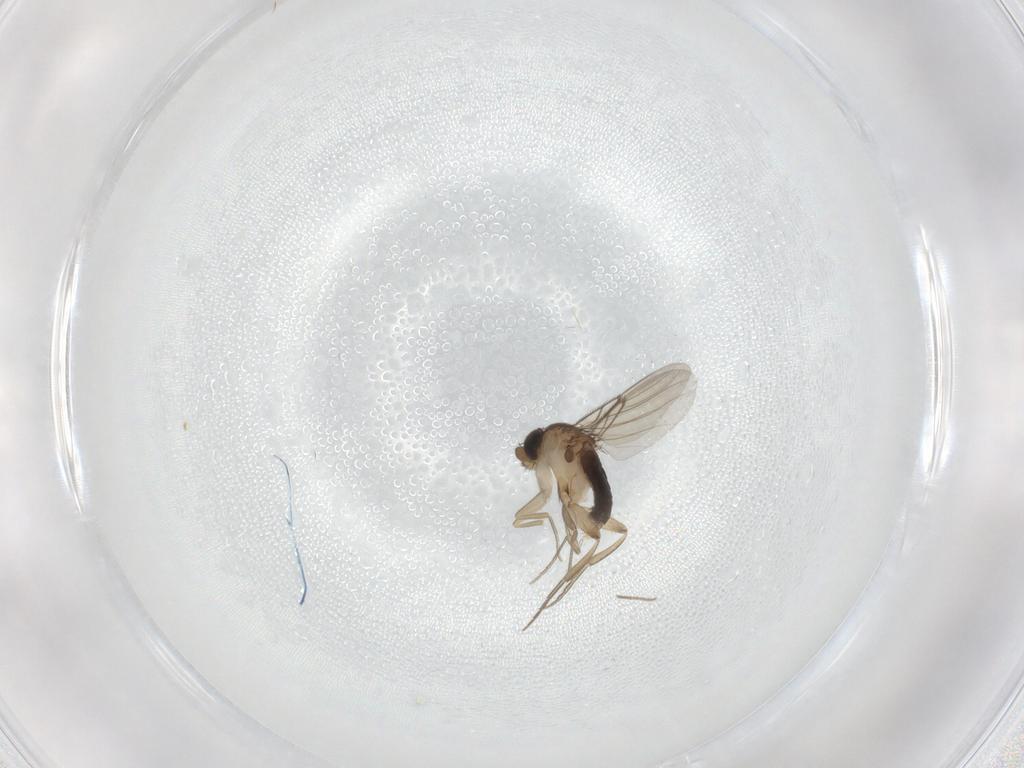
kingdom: Animalia
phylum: Arthropoda
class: Insecta
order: Diptera
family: Phoridae
